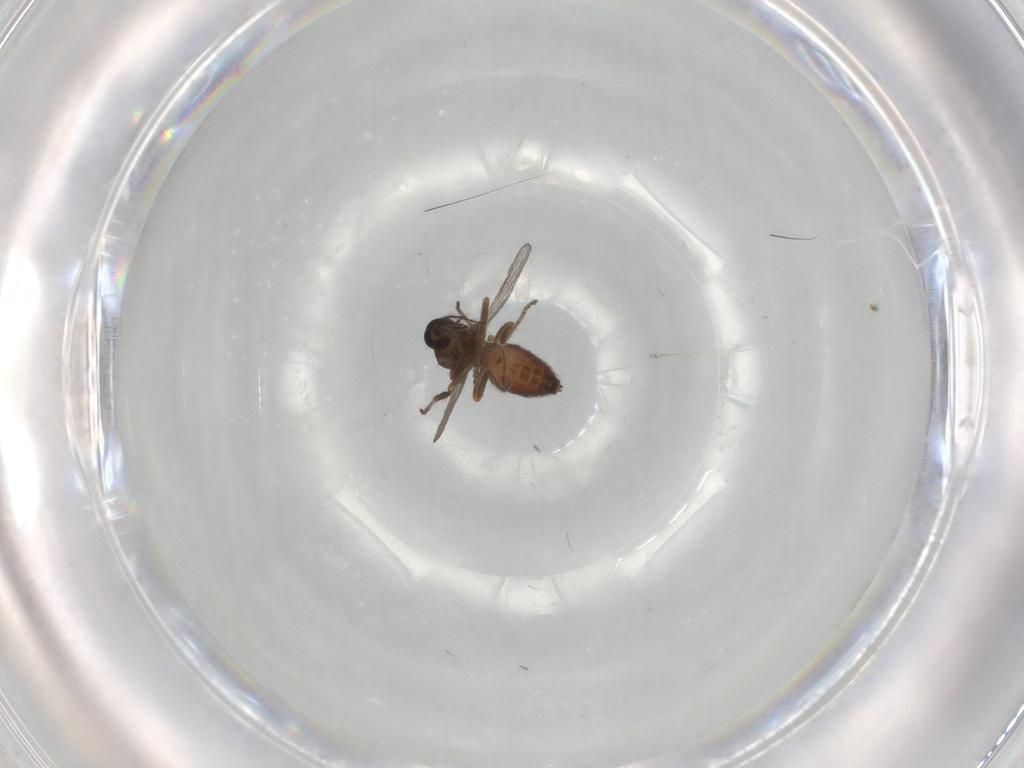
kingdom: Animalia
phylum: Arthropoda
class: Insecta
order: Diptera
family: Ceratopogonidae
